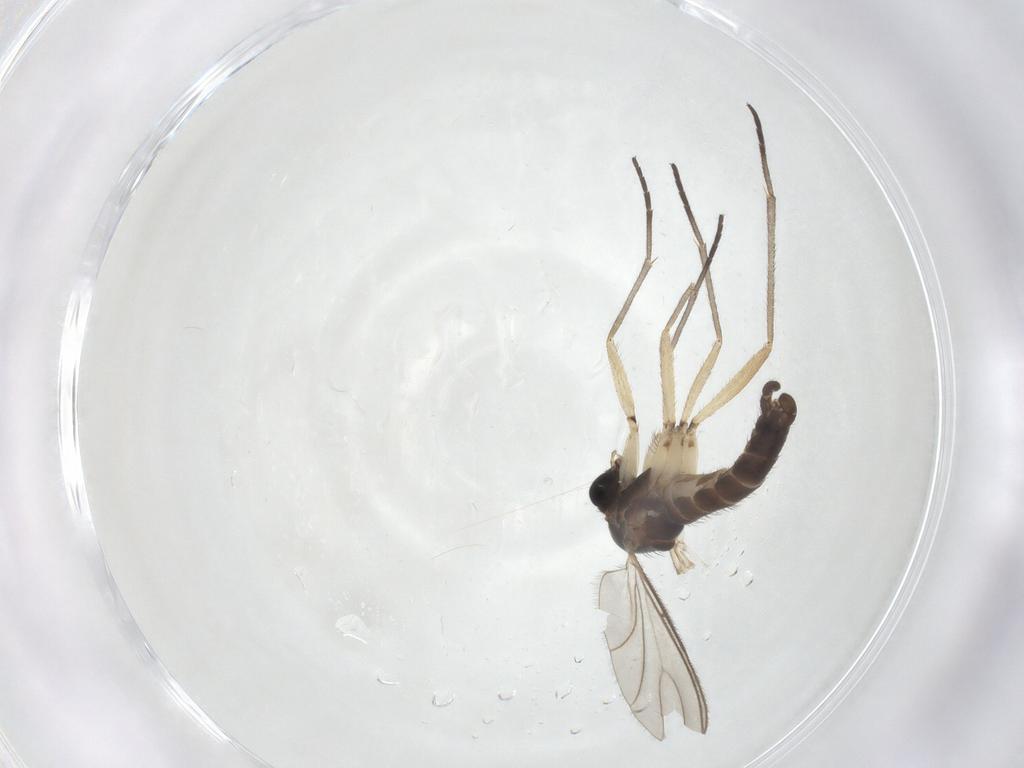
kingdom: Animalia
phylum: Arthropoda
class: Insecta
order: Diptera
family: Sciaridae
